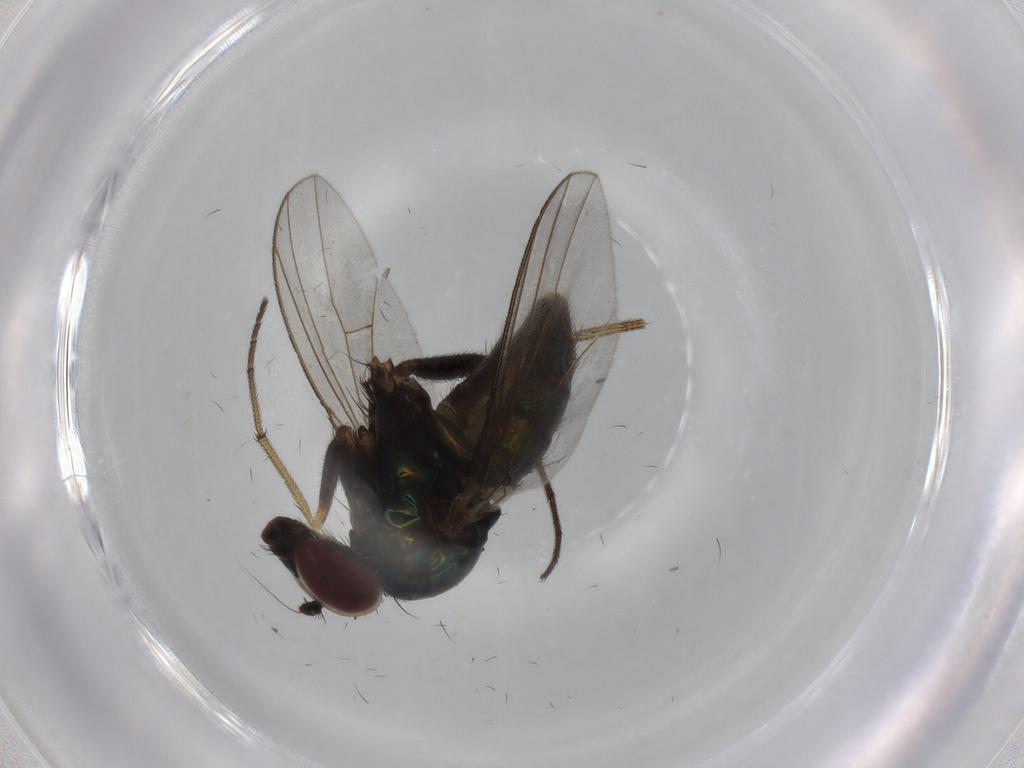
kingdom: Animalia
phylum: Arthropoda
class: Insecta
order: Diptera
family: Dolichopodidae
